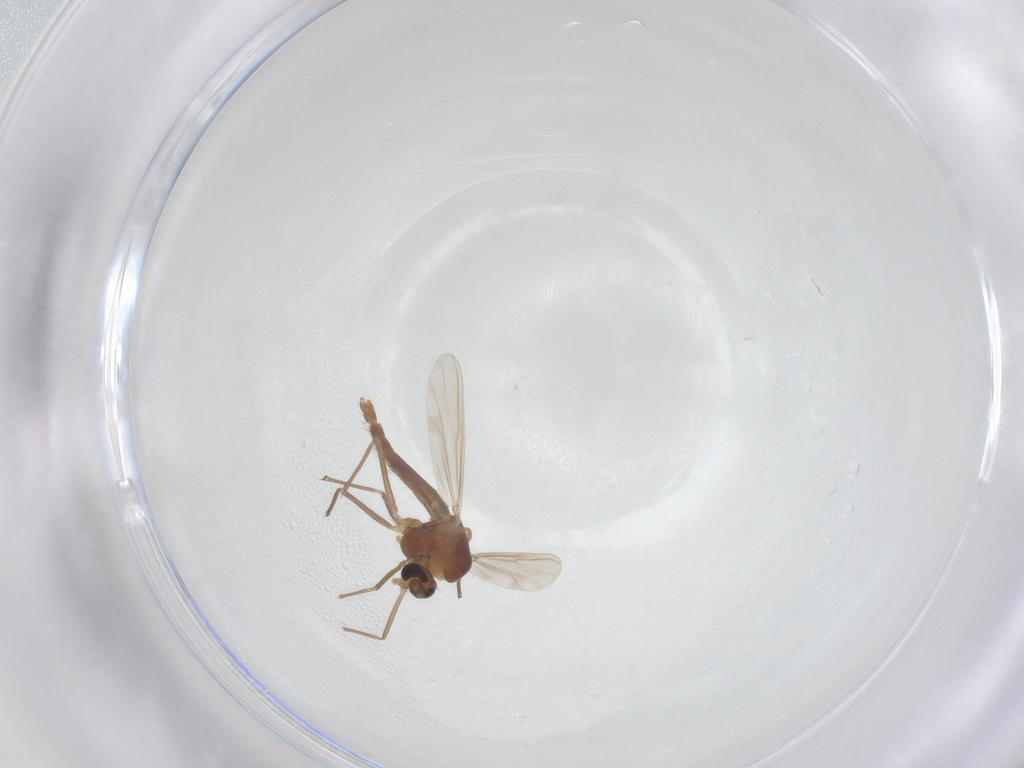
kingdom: Animalia
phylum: Arthropoda
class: Insecta
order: Diptera
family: Chironomidae
